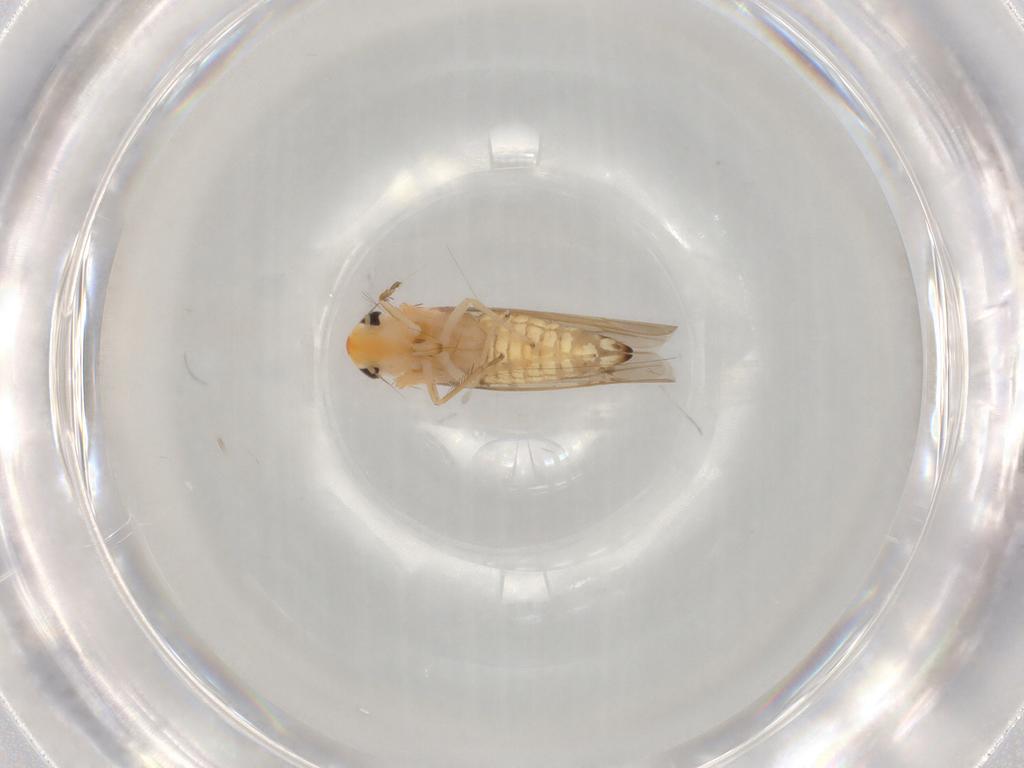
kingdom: Animalia
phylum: Arthropoda
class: Insecta
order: Hemiptera
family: Cicadellidae
